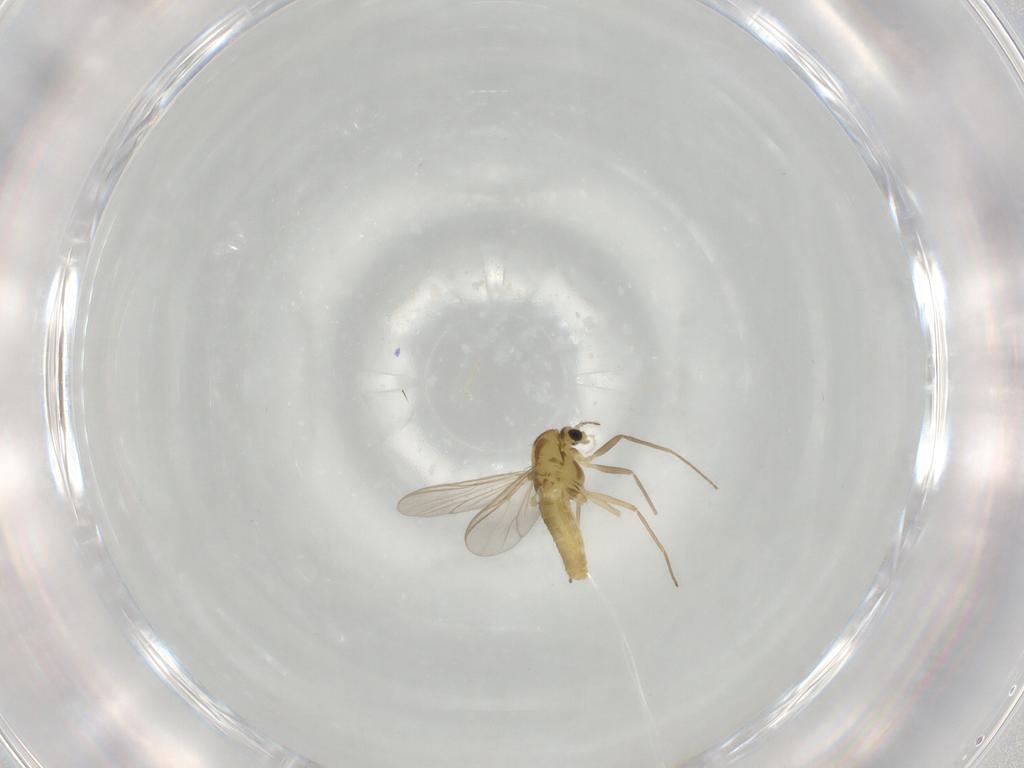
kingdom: Animalia
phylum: Arthropoda
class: Insecta
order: Diptera
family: Chironomidae
